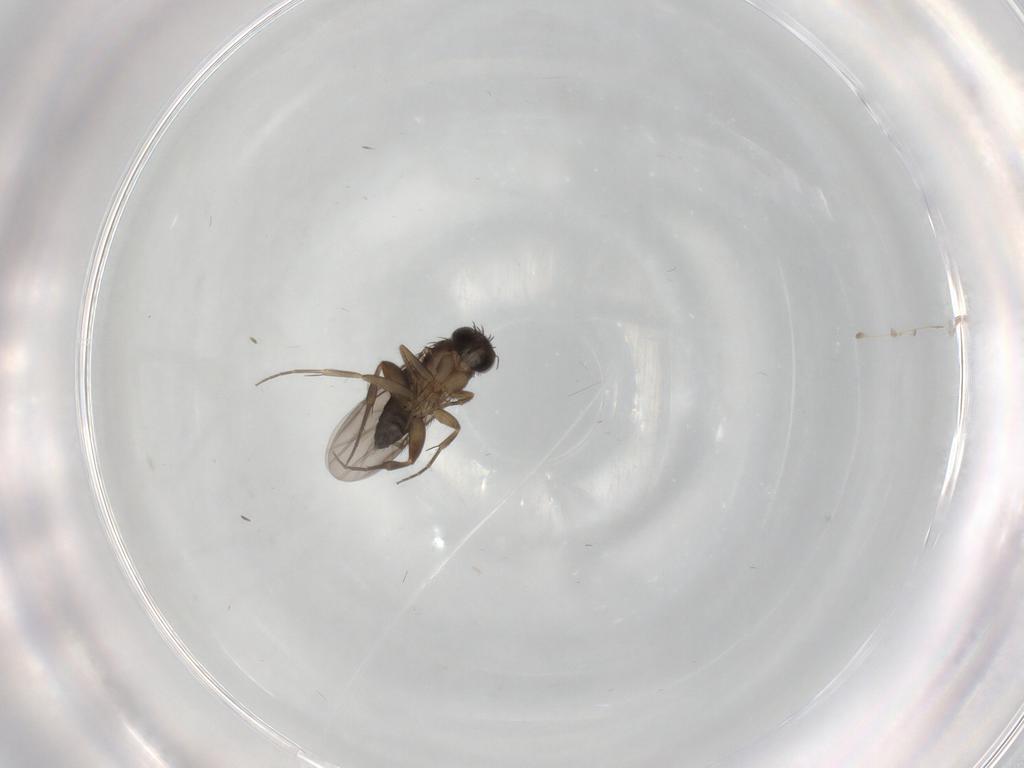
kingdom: Animalia
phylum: Arthropoda
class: Insecta
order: Diptera
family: Phoridae
